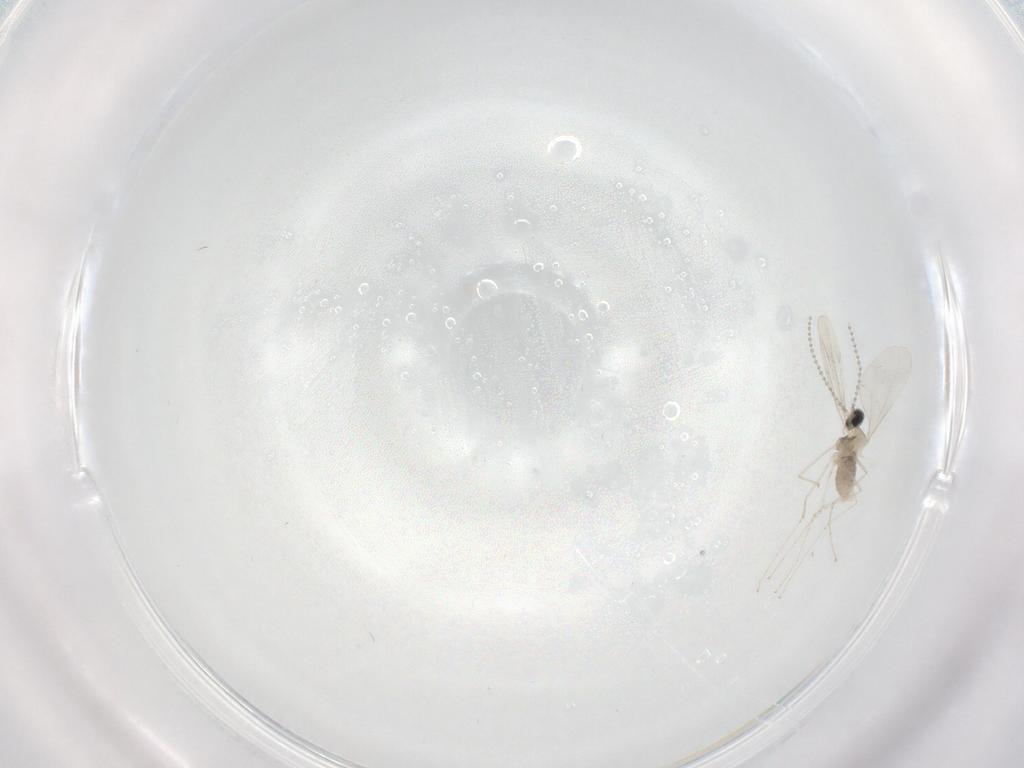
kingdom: Animalia
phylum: Arthropoda
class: Insecta
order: Diptera
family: Cecidomyiidae
